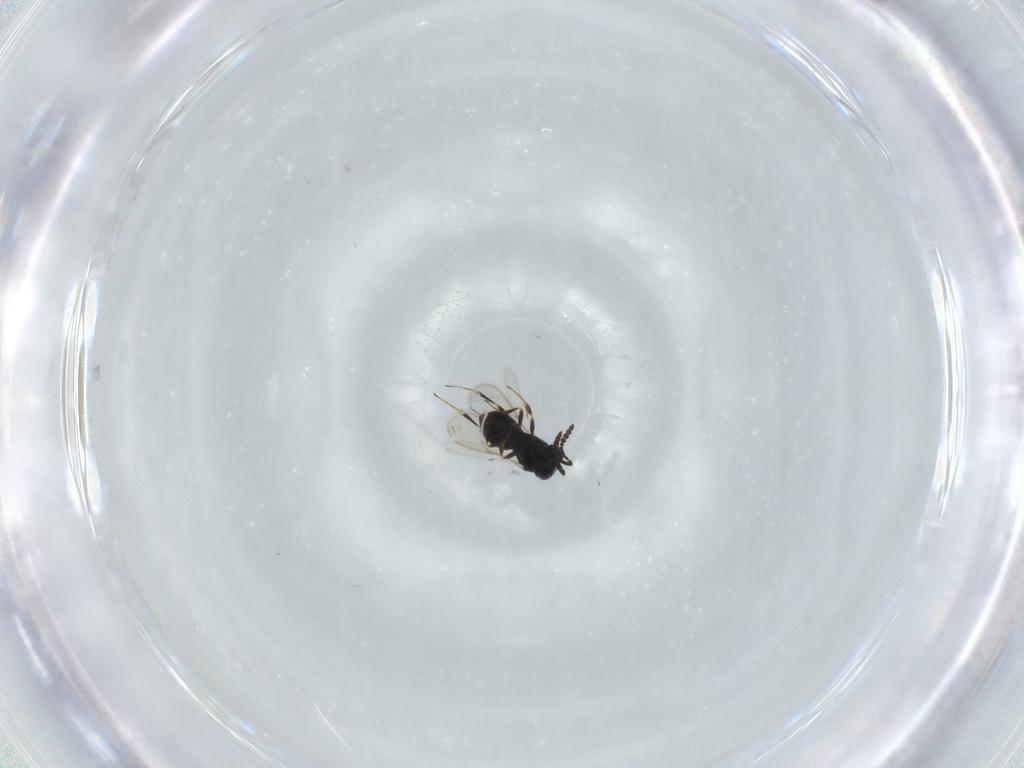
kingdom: Animalia
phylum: Arthropoda
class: Insecta
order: Hymenoptera
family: Scelionidae
